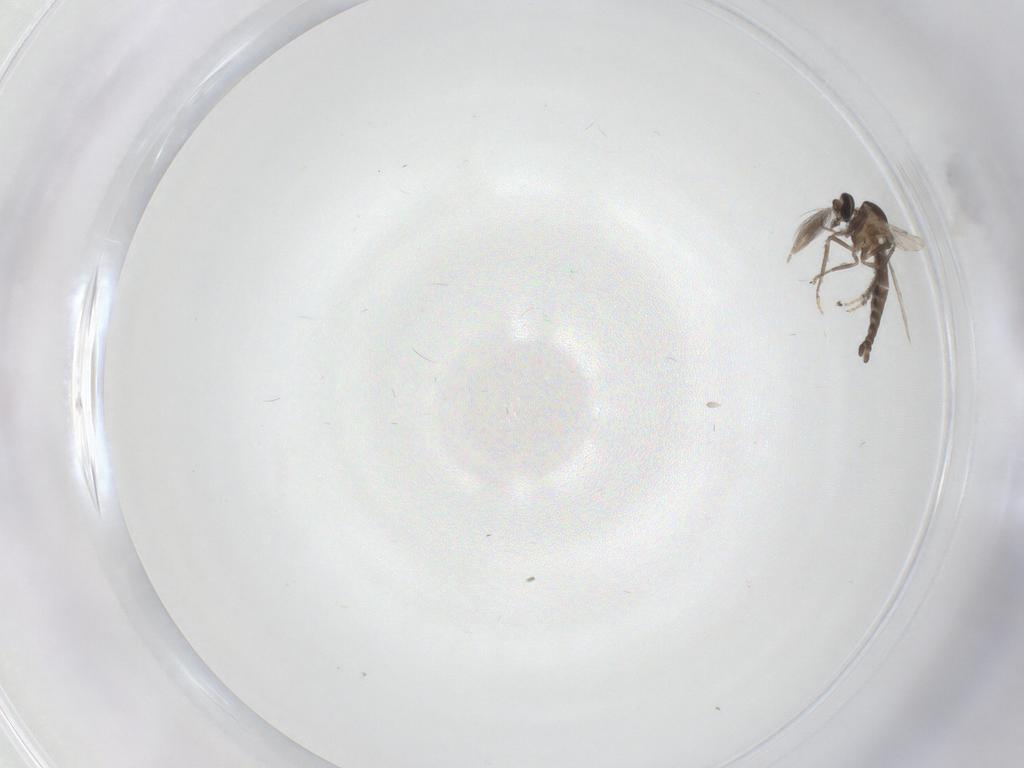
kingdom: Animalia
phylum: Arthropoda
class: Insecta
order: Diptera
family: Ceratopogonidae
